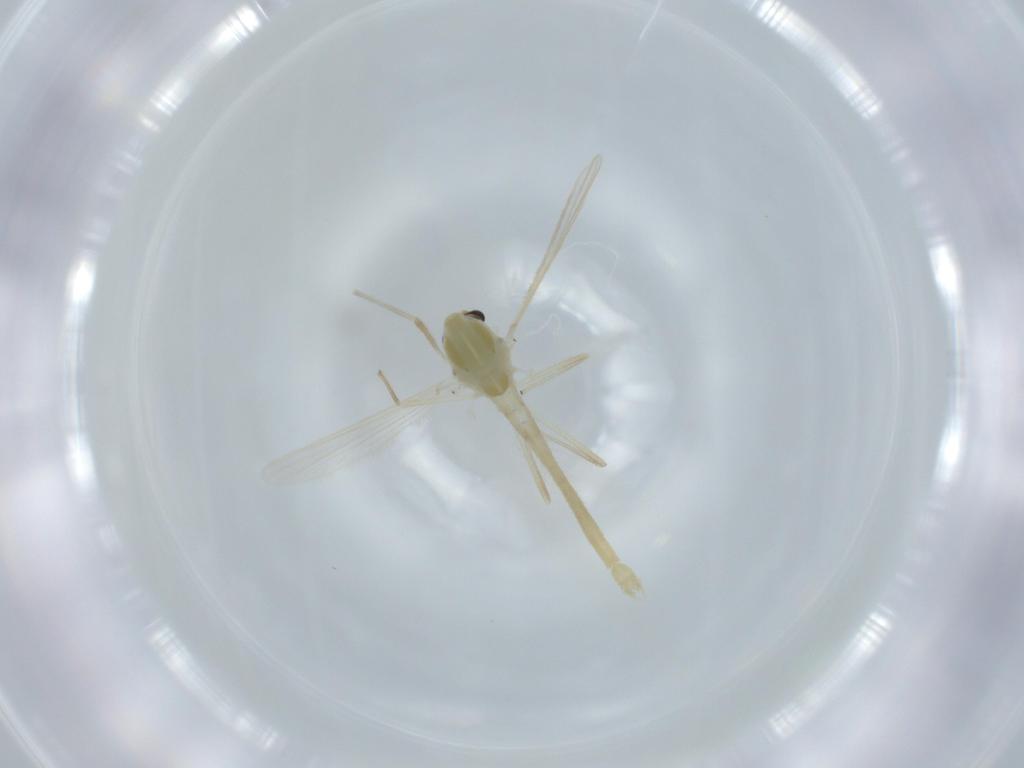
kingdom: Animalia
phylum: Arthropoda
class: Insecta
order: Diptera
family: Chironomidae
